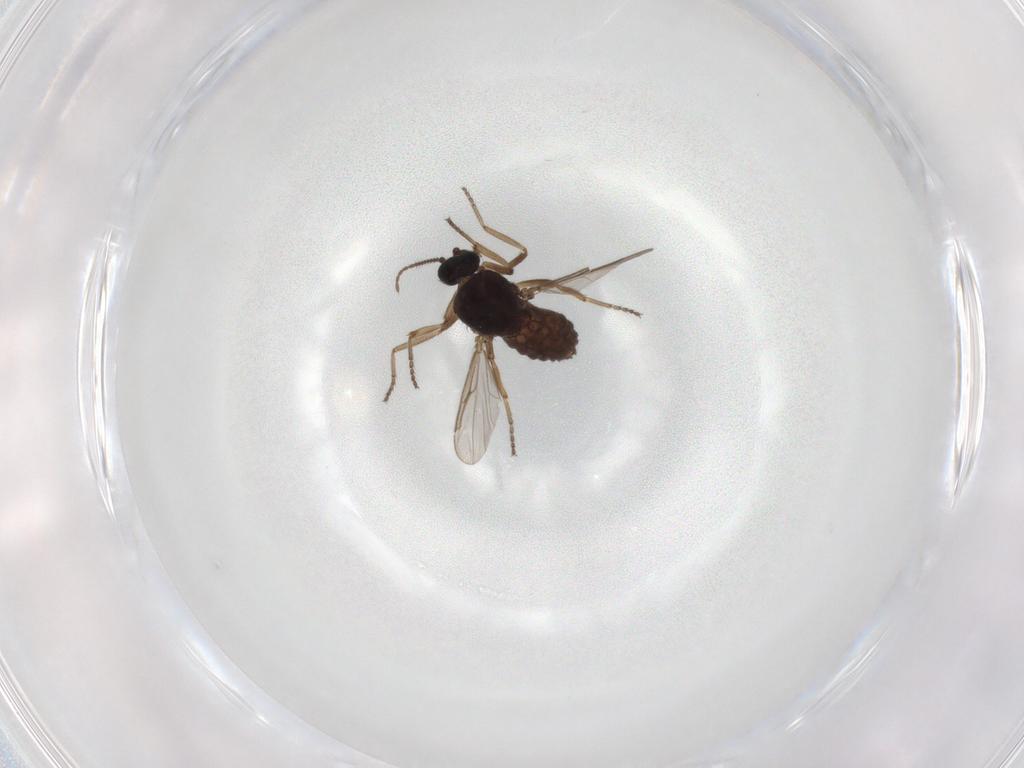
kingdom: Animalia
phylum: Arthropoda
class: Insecta
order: Diptera
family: Ceratopogonidae
